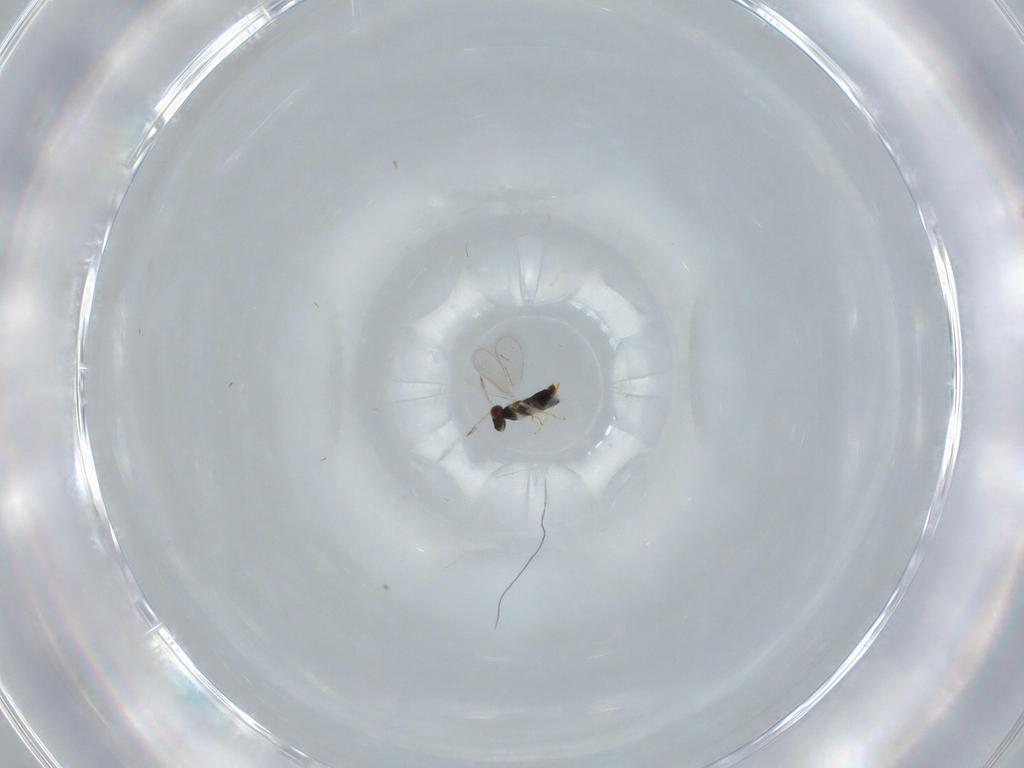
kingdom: Animalia
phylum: Arthropoda
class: Insecta
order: Hymenoptera
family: Aphelinidae
